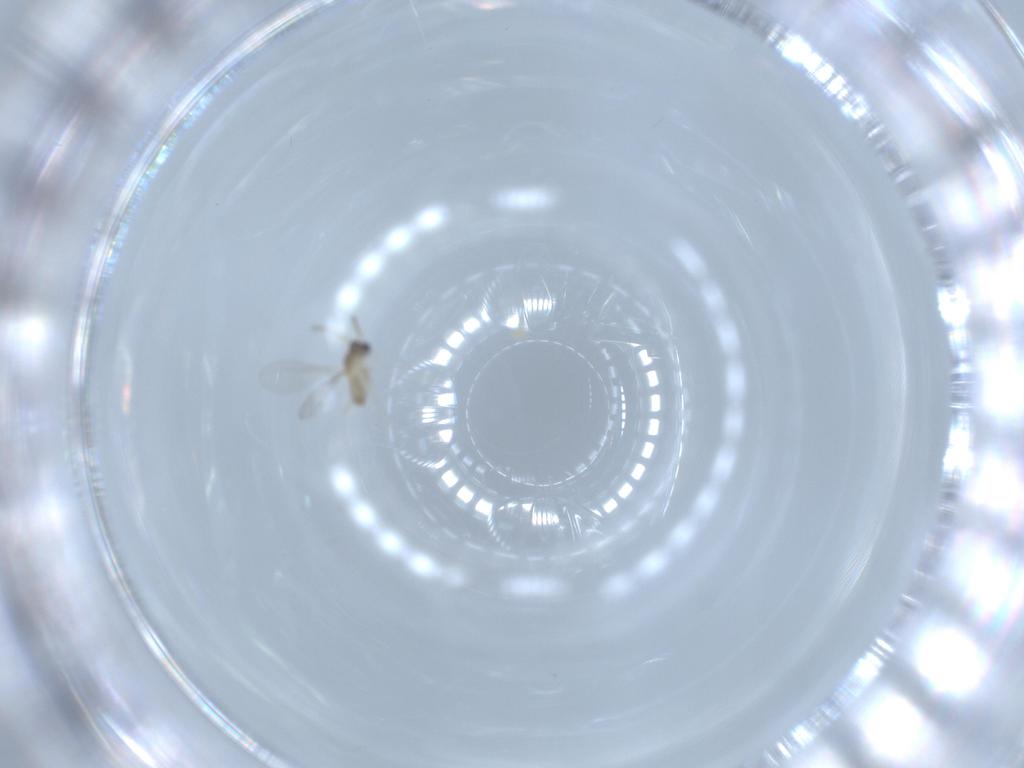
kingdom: Animalia
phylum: Arthropoda
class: Insecta
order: Diptera
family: Cecidomyiidae
